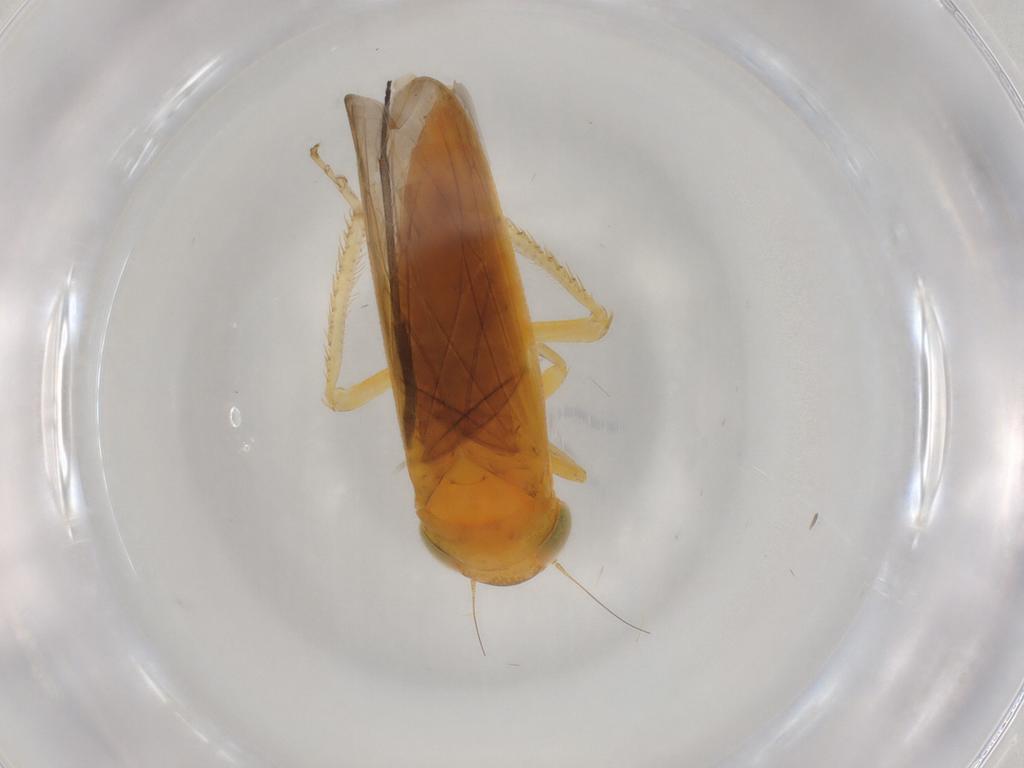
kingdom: Animalia
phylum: Arthropoda
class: Insecta
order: Hemiptera
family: Cicadellidae
